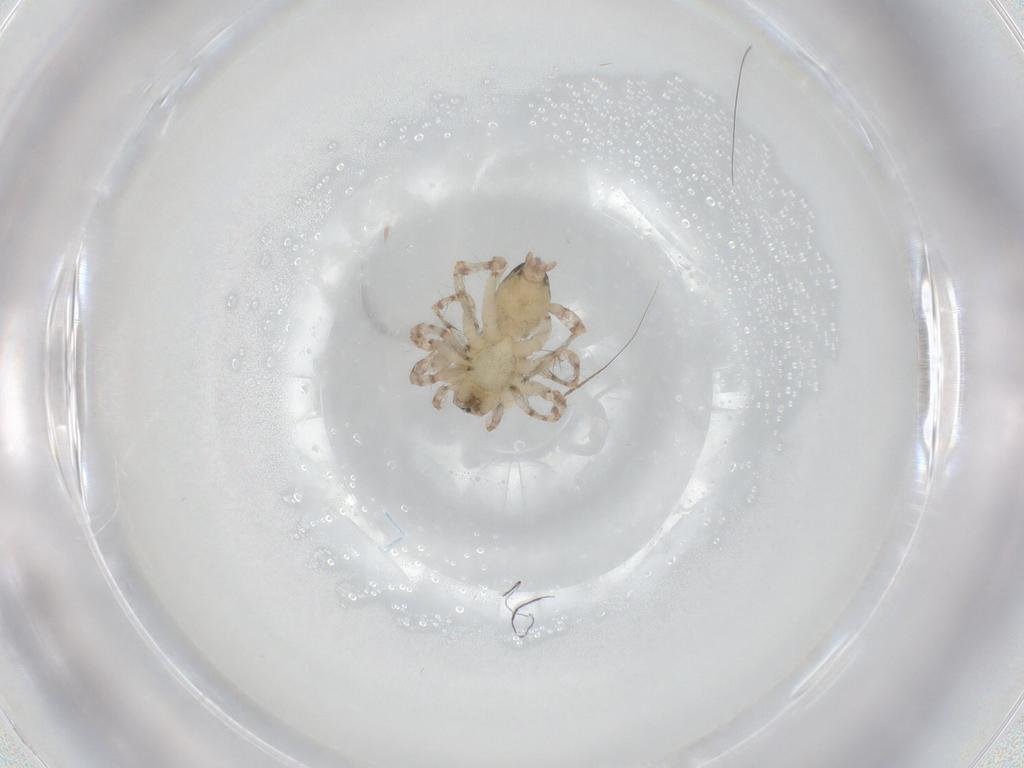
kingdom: Animalia
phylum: Arthropoda
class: Arachnida
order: Araneae
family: Anyphaenidae
